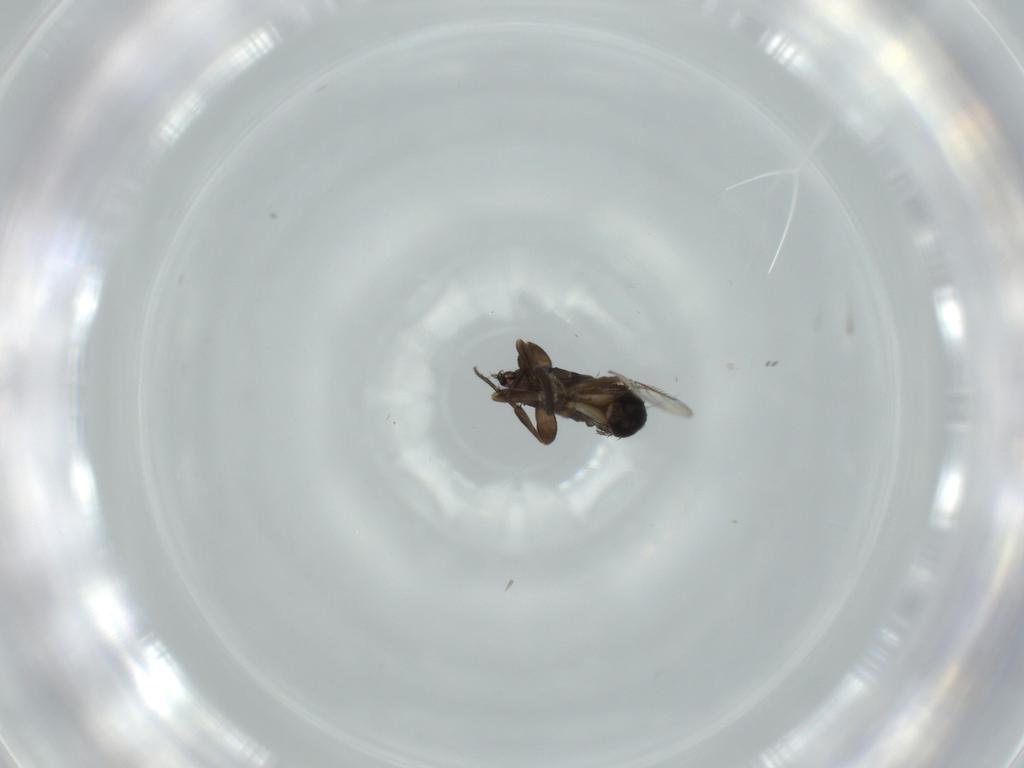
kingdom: Animalia
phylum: Arthropoda
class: Insecta
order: Diptera
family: Phoridae
